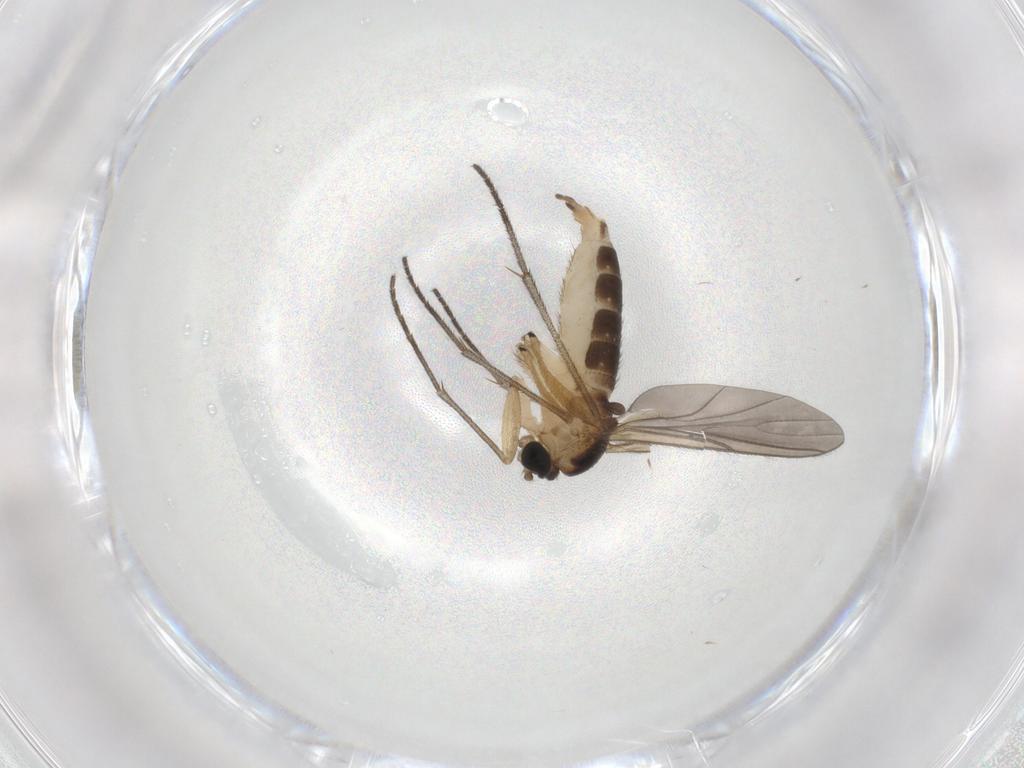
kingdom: Animalia
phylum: Arthropoda
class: Insecta
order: Diptera
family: Sciaridae
